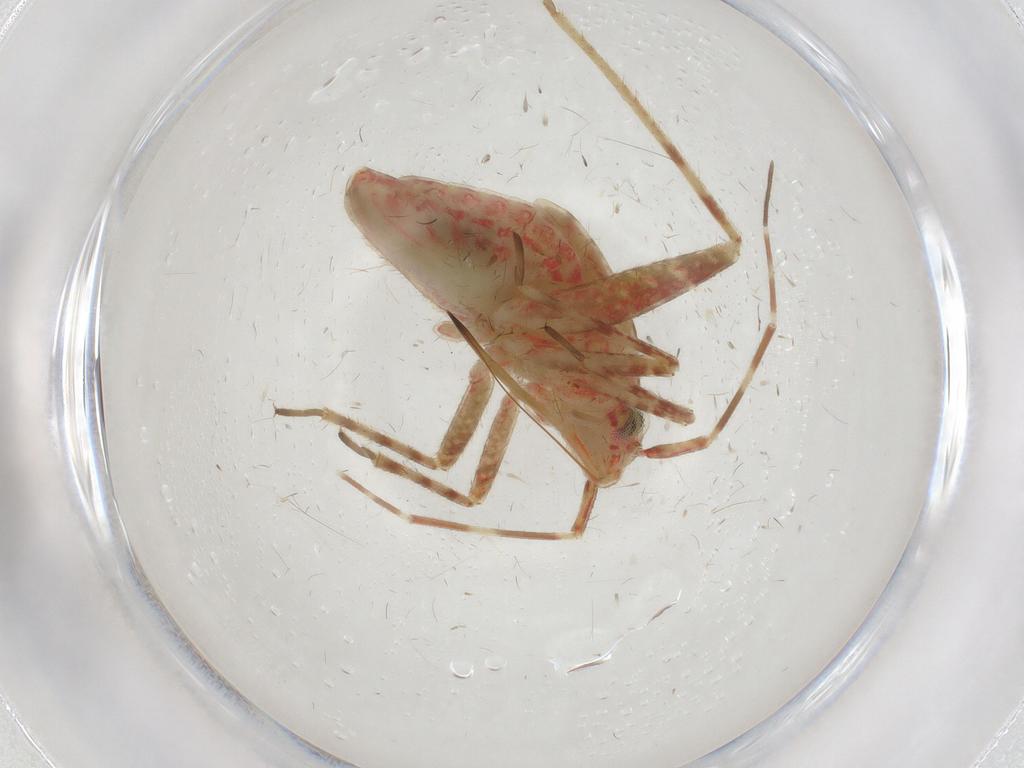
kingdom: Animalia
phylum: Arthropoda
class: Insecta
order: Hemiptera
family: Miridae
